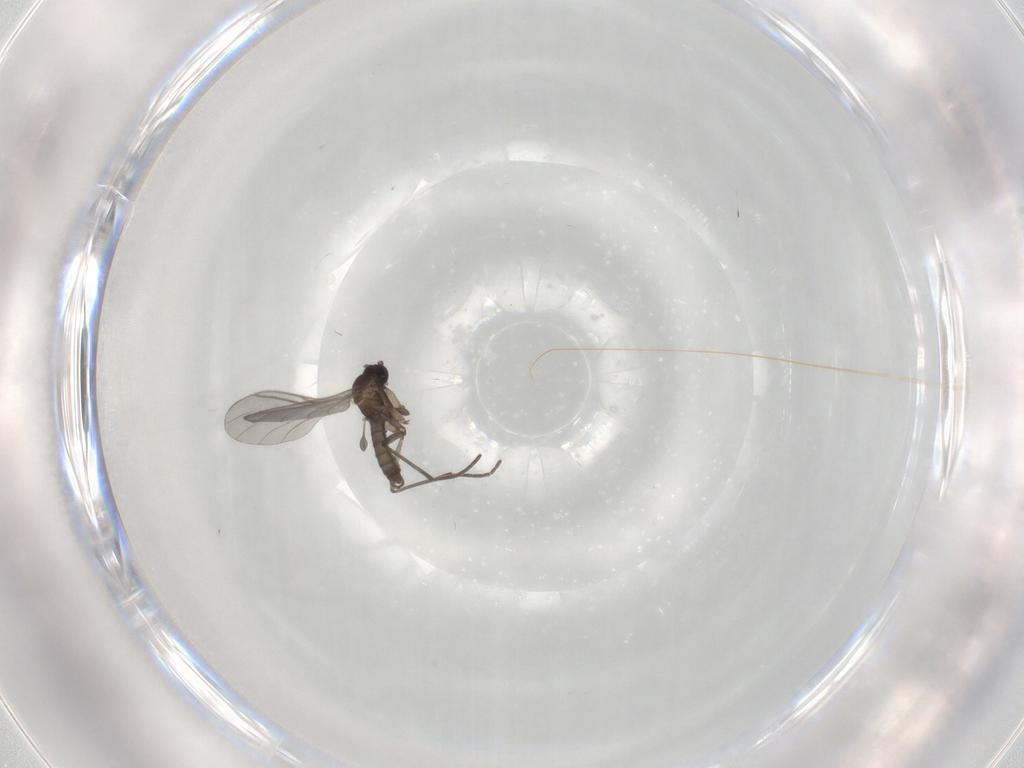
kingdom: Animalia
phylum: Arthropoda
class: Insecta
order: Diptera
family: Sciaridae
